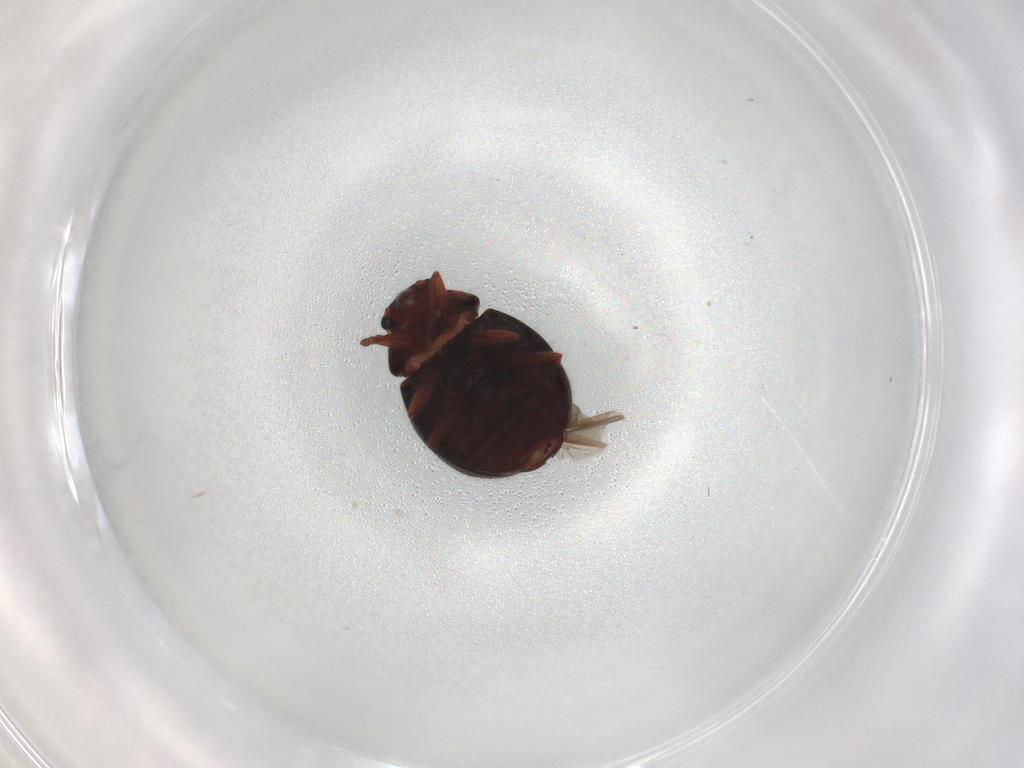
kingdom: Animalia
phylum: Arthropoda
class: Insecta
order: Coleoptera
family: Sphindidae
